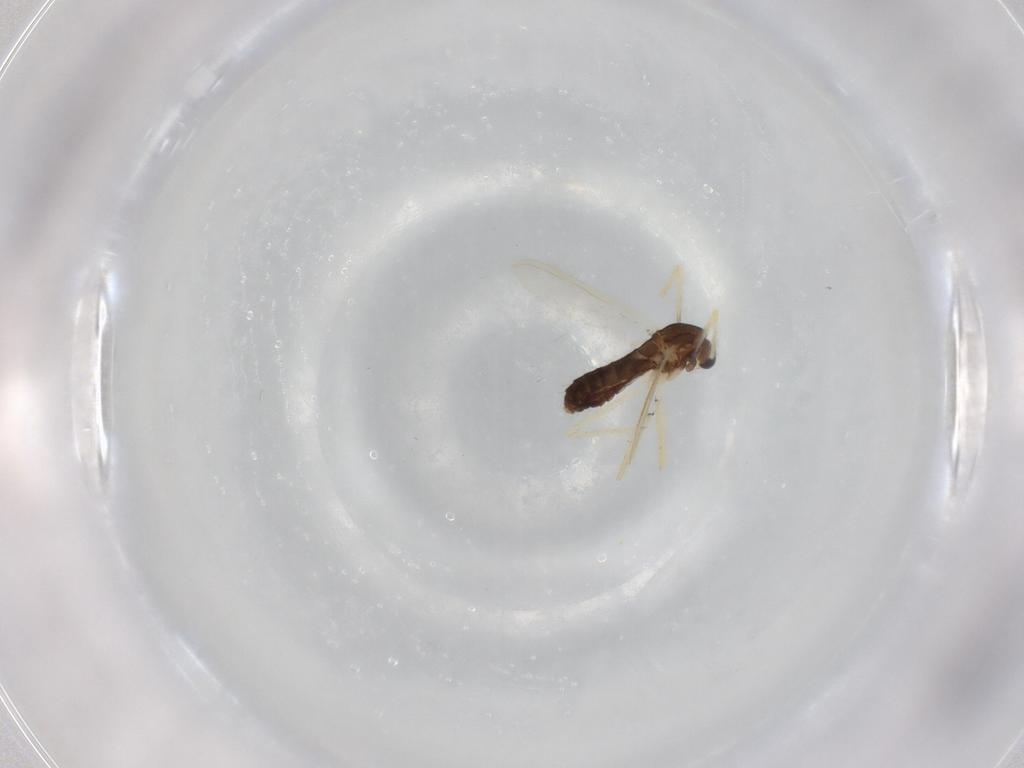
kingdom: Animalia
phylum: Arthropoda
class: Insecta
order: Diptera
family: Chironomidae
